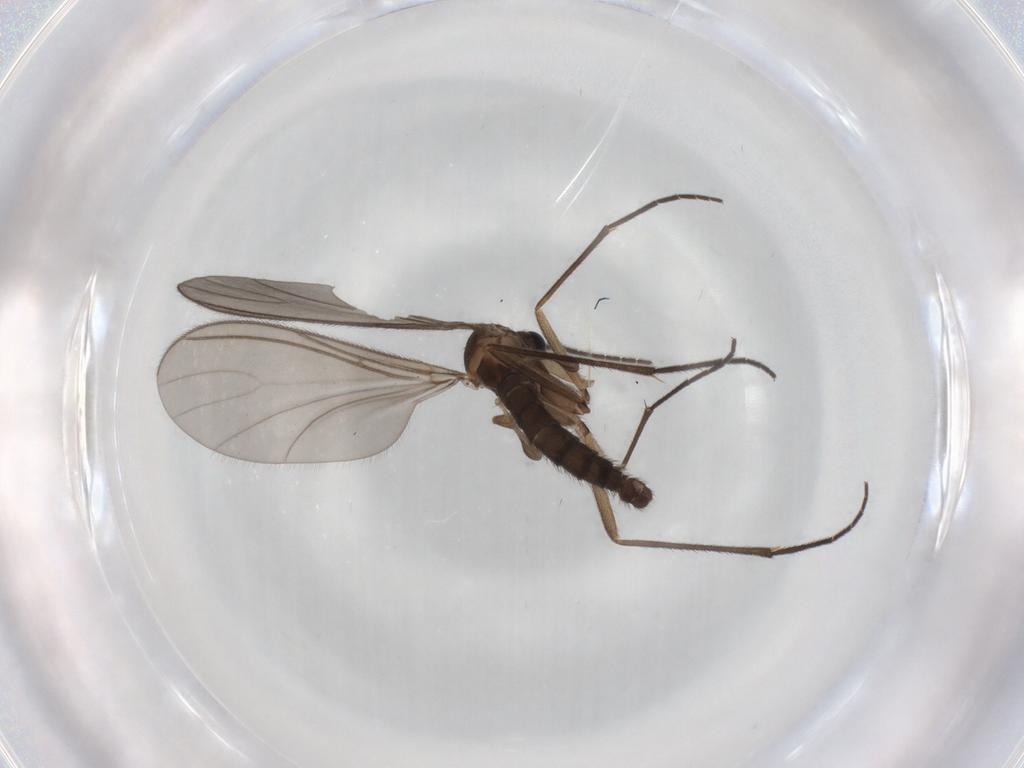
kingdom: Animalia
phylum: Arthropoda
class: Insecta
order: Diptera
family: Sciaridae
